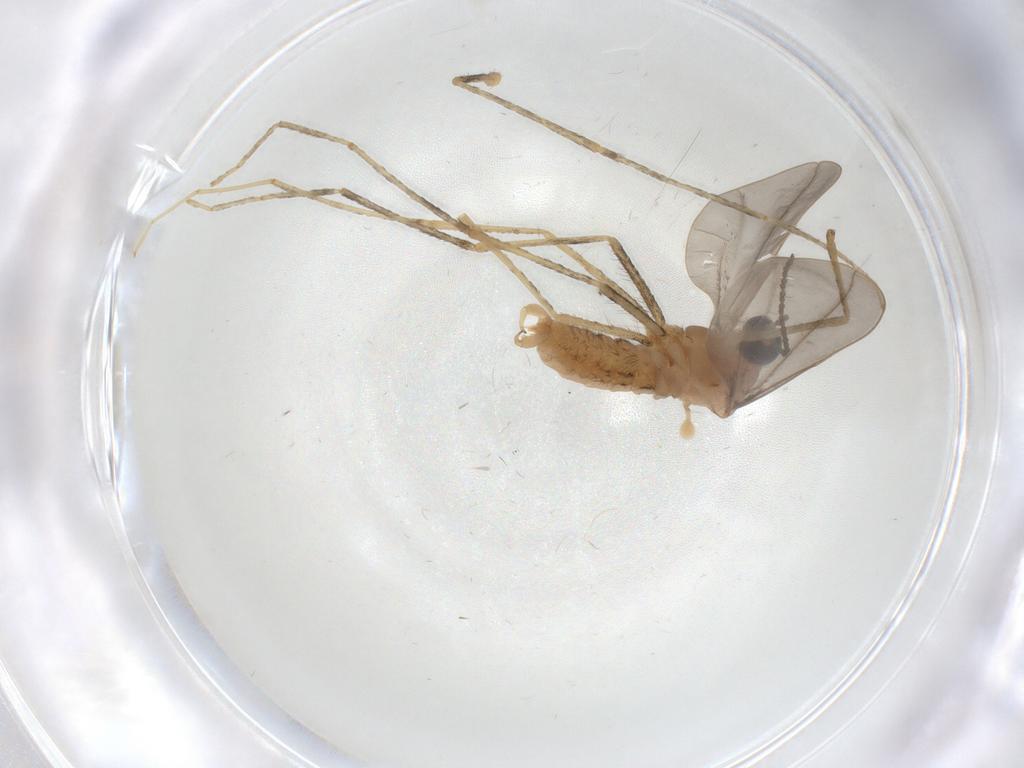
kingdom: Animalia
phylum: Arthropoda
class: Insecta
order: Diptera
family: Cecidomyiidae
